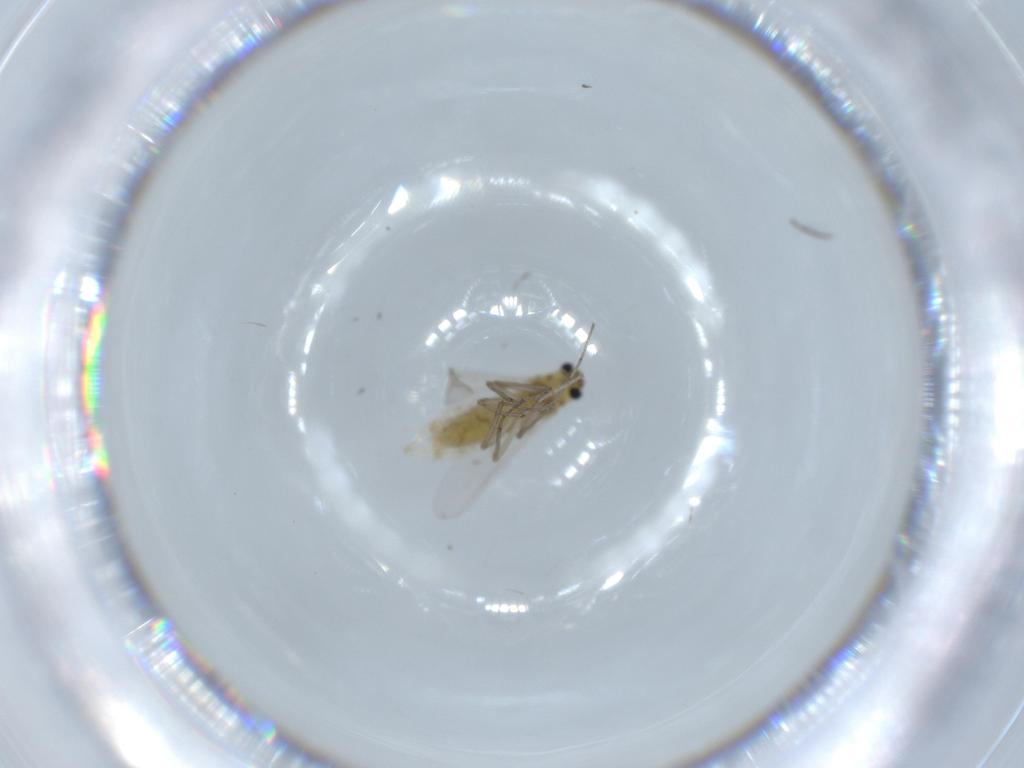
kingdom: Animalia
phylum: Arthropoda
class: Insecta
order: Diptera
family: Chironomidae
